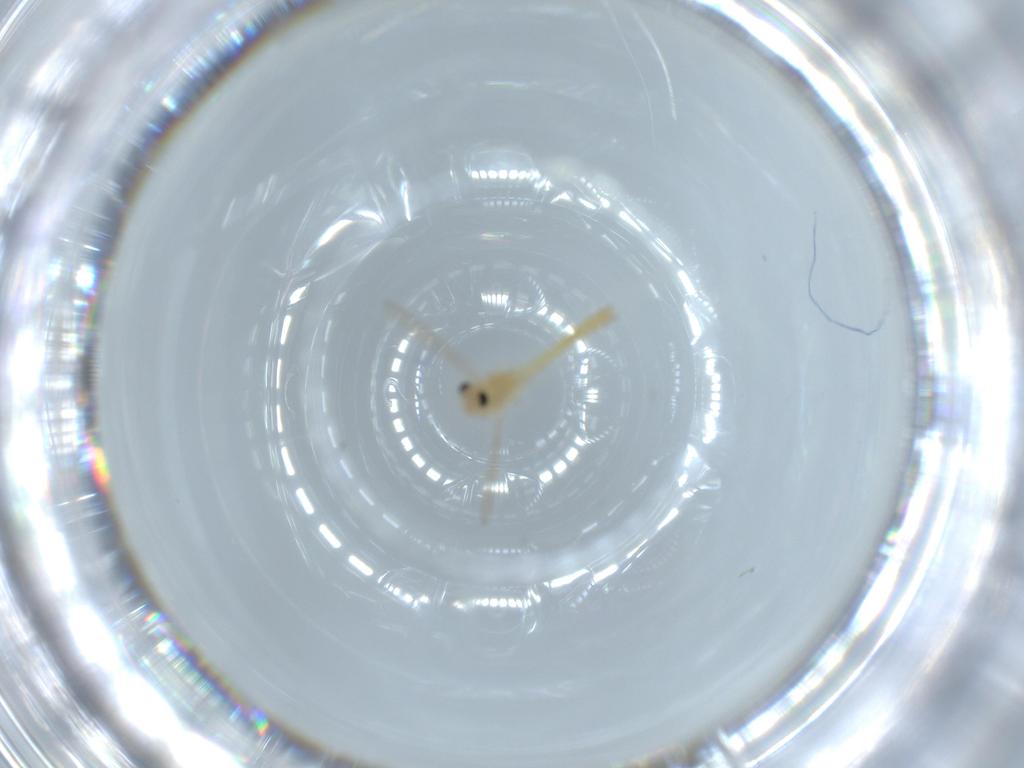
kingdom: Animalia
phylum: Arthropoda
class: Insecta
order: Diptera
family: Chironomidae
